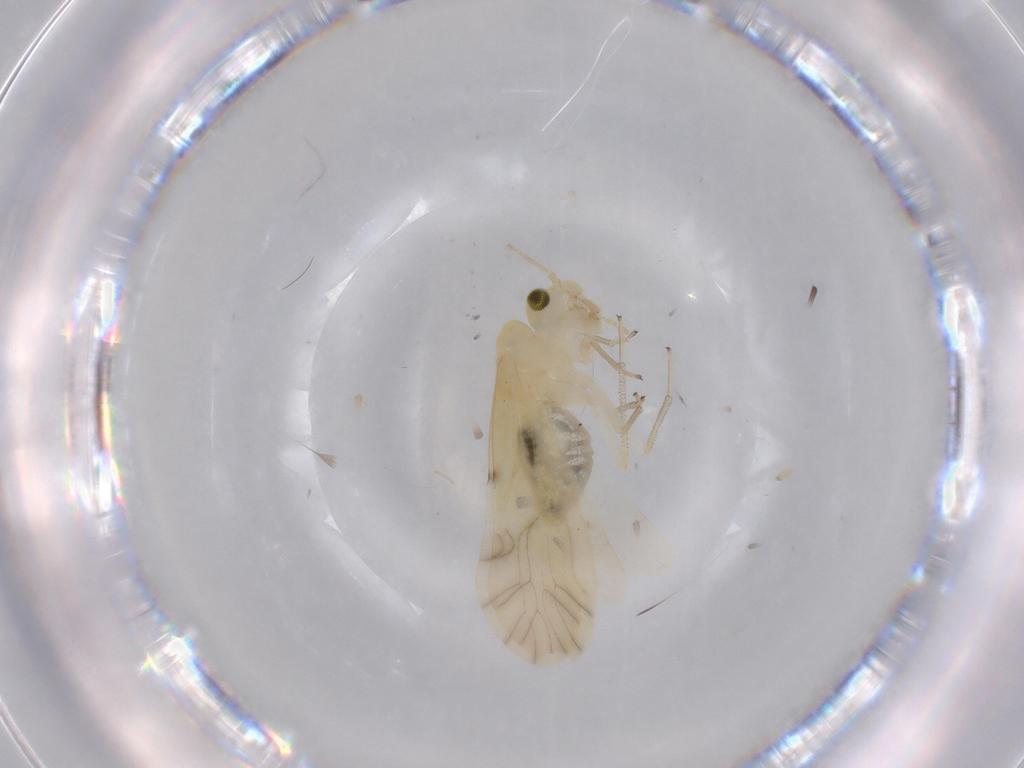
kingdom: Animalia
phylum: Arthropoda
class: Insecta
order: Psocodea
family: Caeciliusidae
